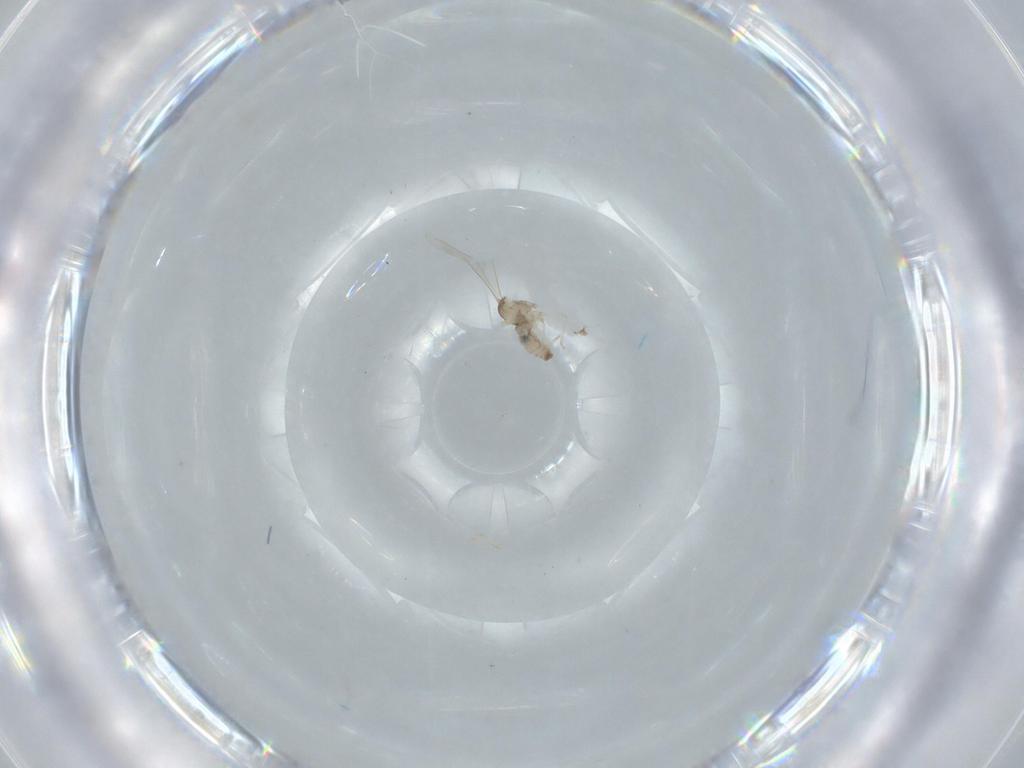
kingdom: Animalia
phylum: Arthropoda
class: Insecta
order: Diptera
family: Cecidomyiidae
